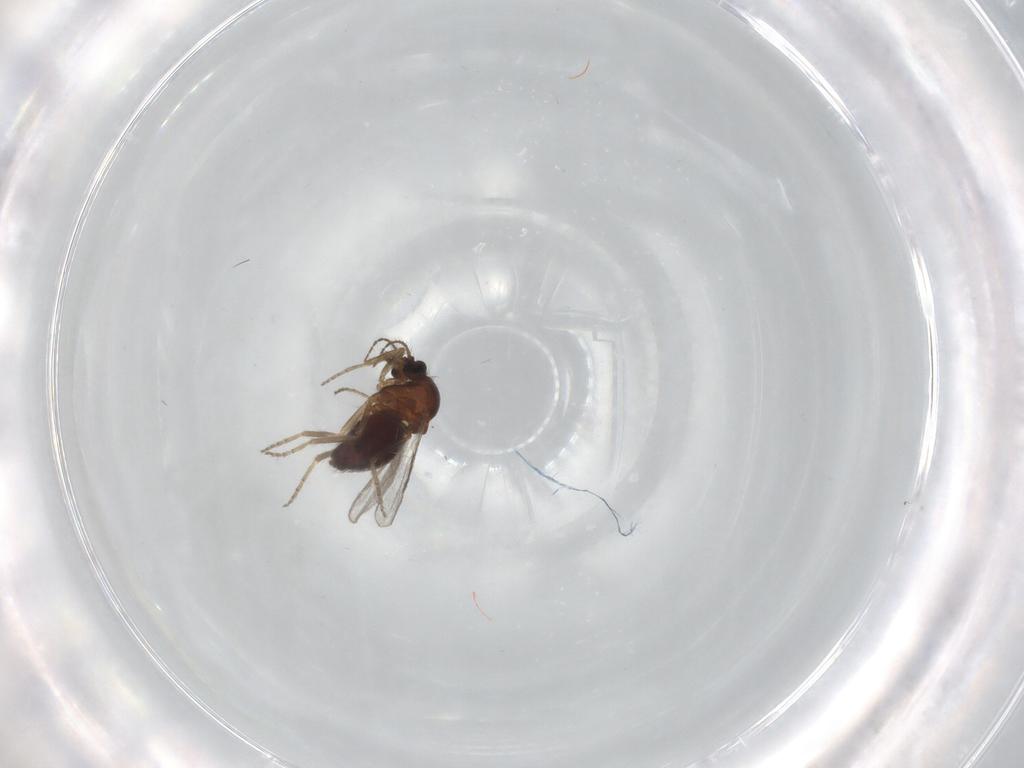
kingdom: Animalia
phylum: Arthropoda
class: Insecta
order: Diptera
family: Ceratopogonidae
